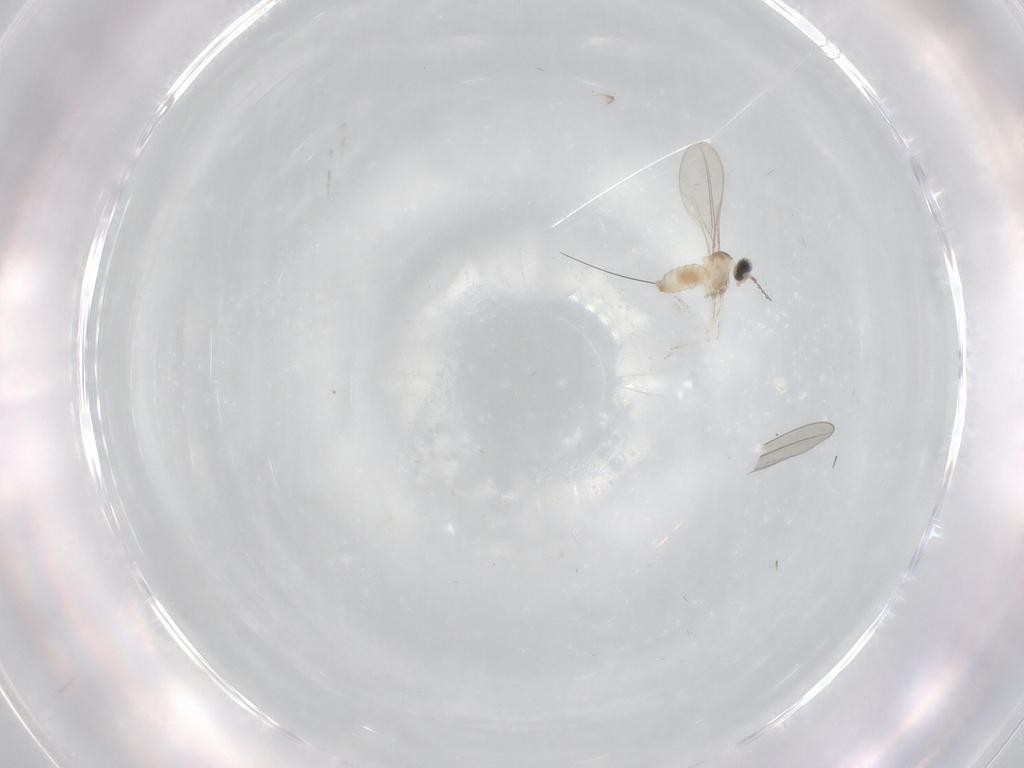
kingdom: Animalia
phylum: Arthropoda
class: Insecta
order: Diptera
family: Cecidomyiidae
